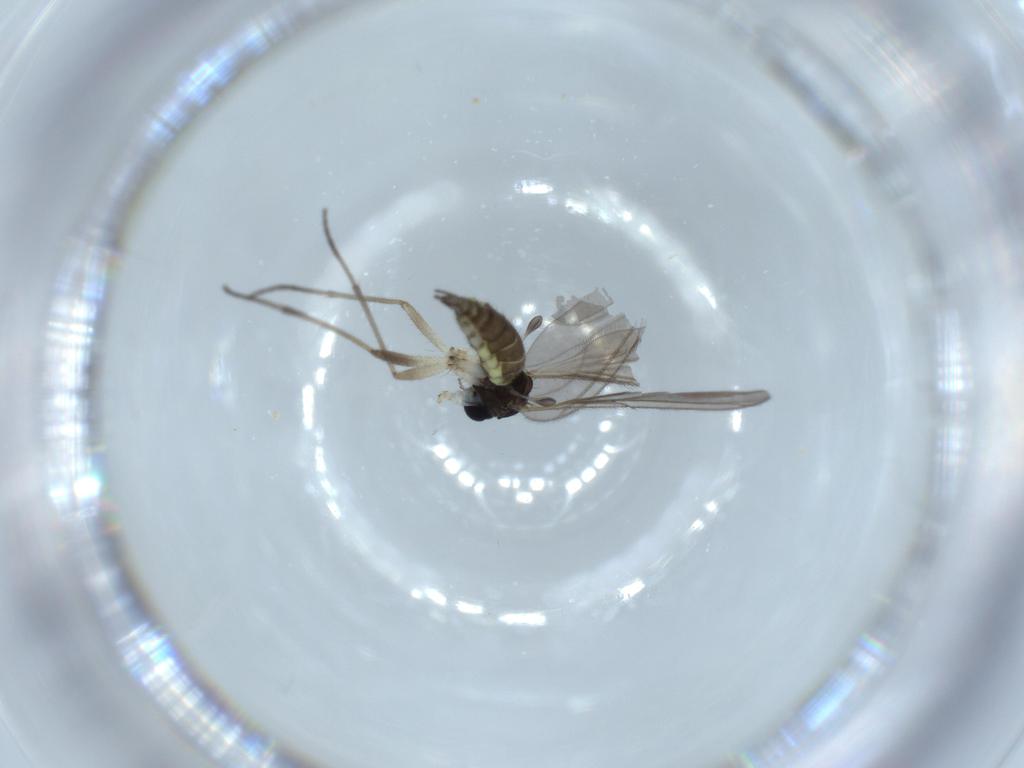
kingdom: Animalia
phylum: Arthropoda
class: Insecta
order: Diptera
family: Sciaridae
